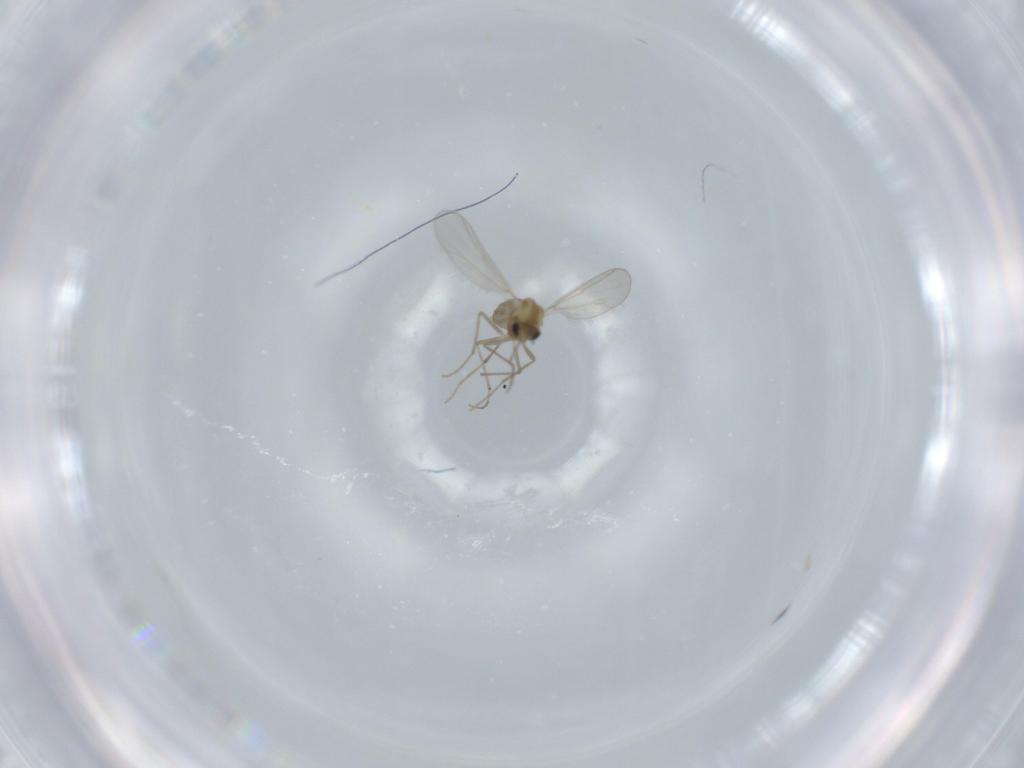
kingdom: Animalia
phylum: Arthropoda
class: Insecta
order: Diptera
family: Chironomidae
